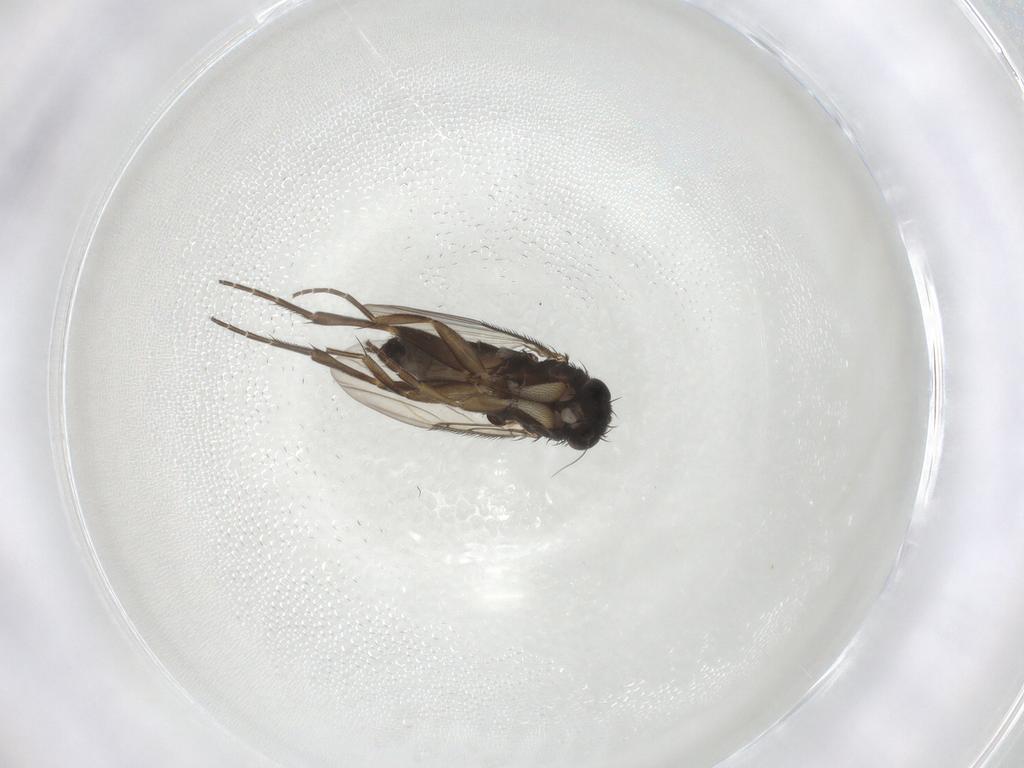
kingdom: Animalia
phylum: Arthropoda
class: Insecta
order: Diptera
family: Phoridae
